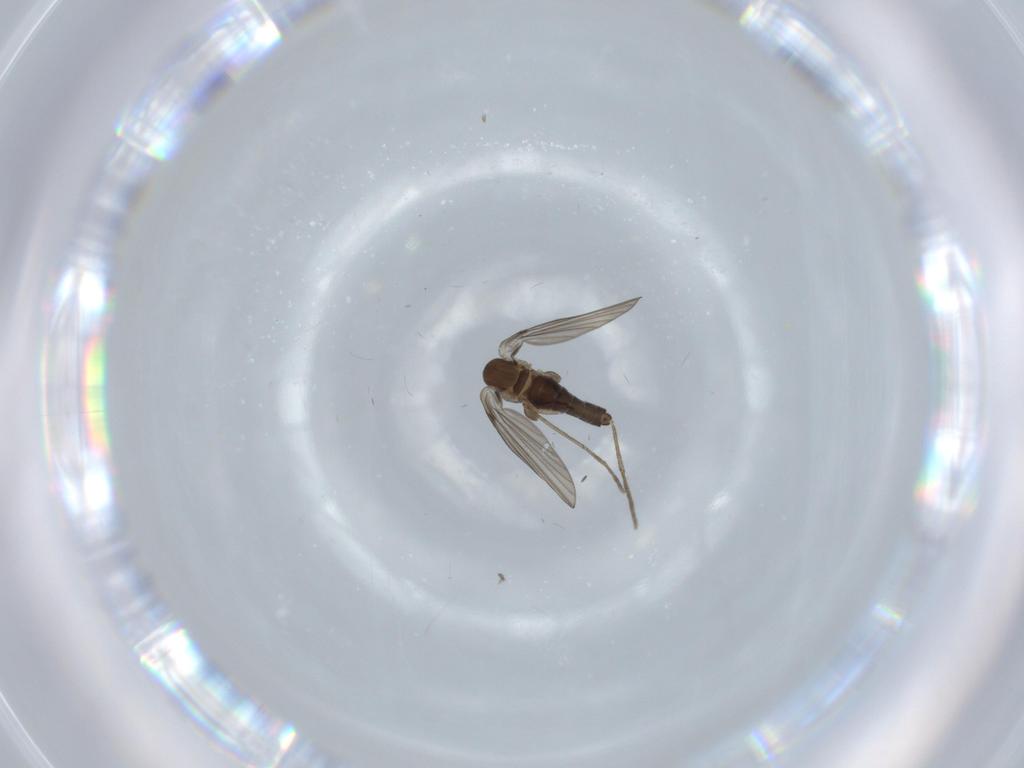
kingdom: Animalia
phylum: Arthropoda
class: Insecta
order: Diptera
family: Psychodidae
